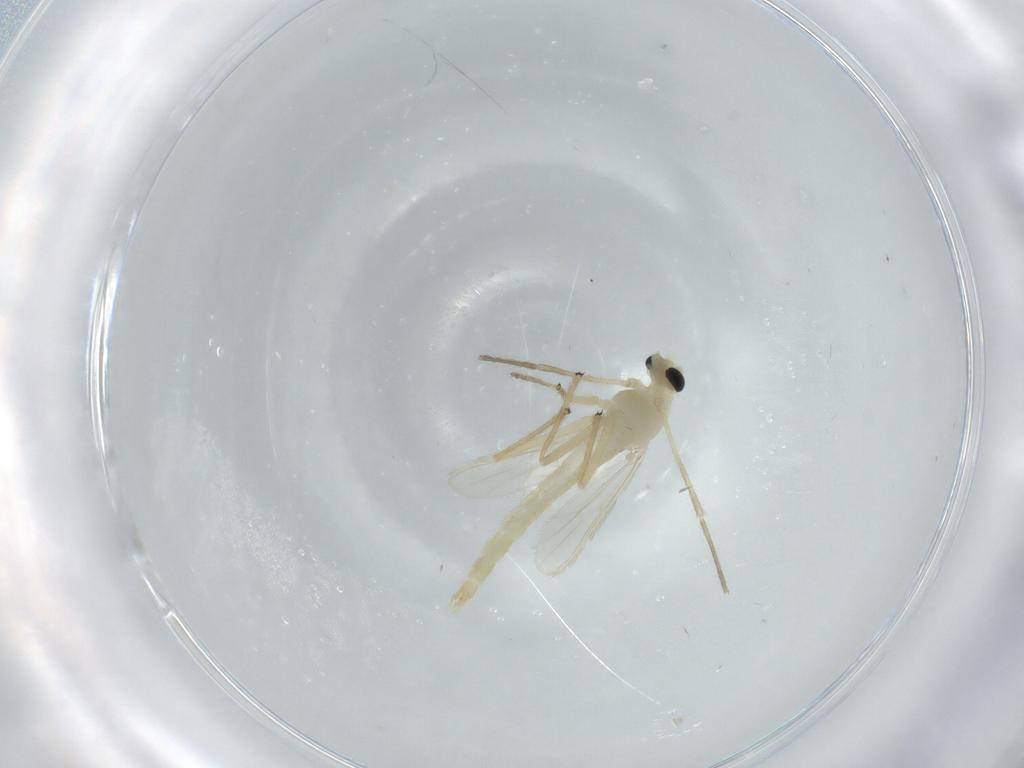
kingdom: Animalia
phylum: Arthropoda
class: Insecta
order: Diptera
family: Chironomidae
